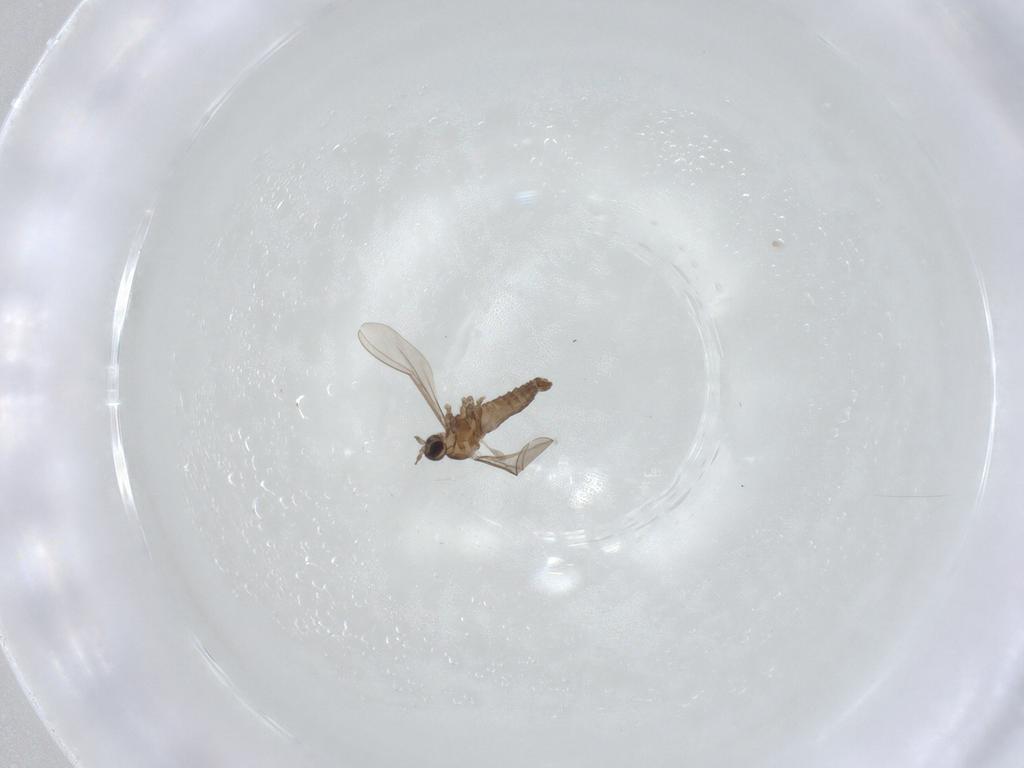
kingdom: Animalia
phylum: Arthropoda
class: Insecta
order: Diptera
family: Cecidomyiidae
